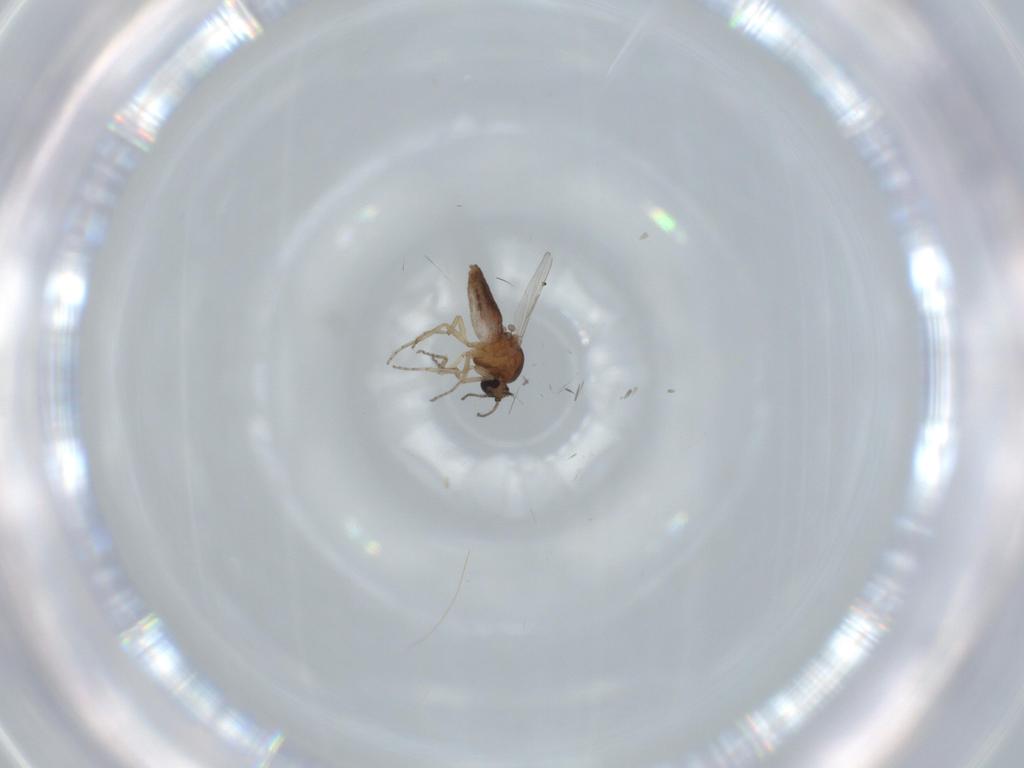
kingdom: Animalia
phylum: Arthropoda
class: Insecta
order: Diptera
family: Ceratopogonidae
